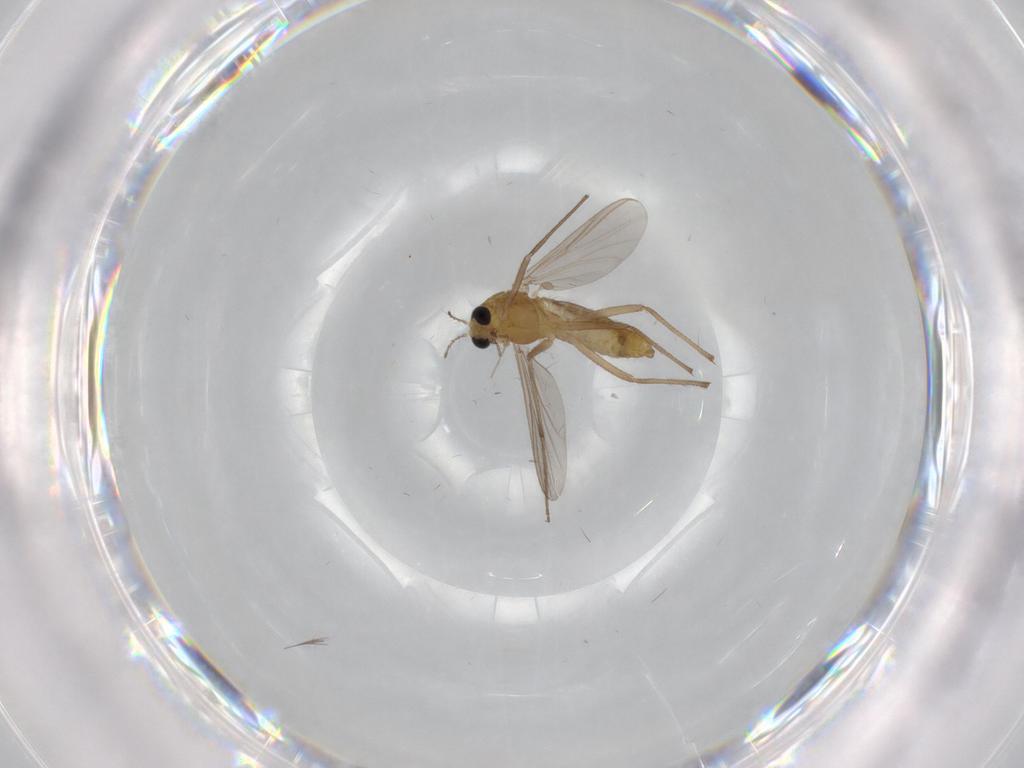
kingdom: Animalia
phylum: Arthropoda
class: Insecta
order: Diptera
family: Chironomidae
